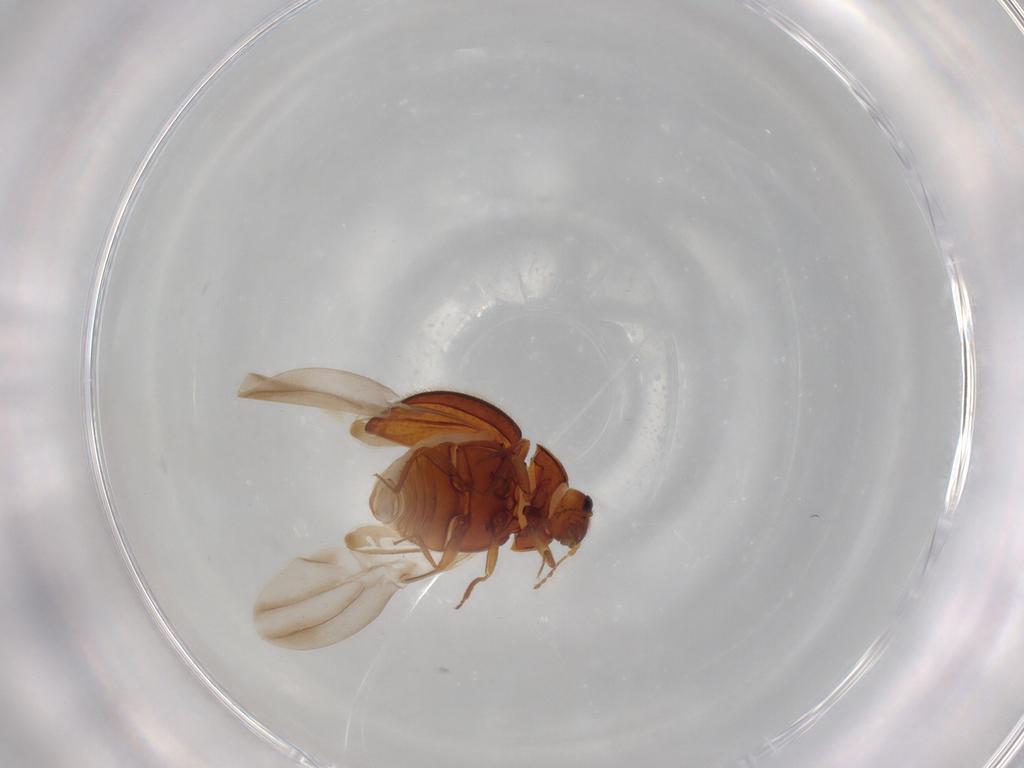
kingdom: Animalia
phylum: Arthropoda
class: Insecta
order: Coleoptera
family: Anamorphidae
